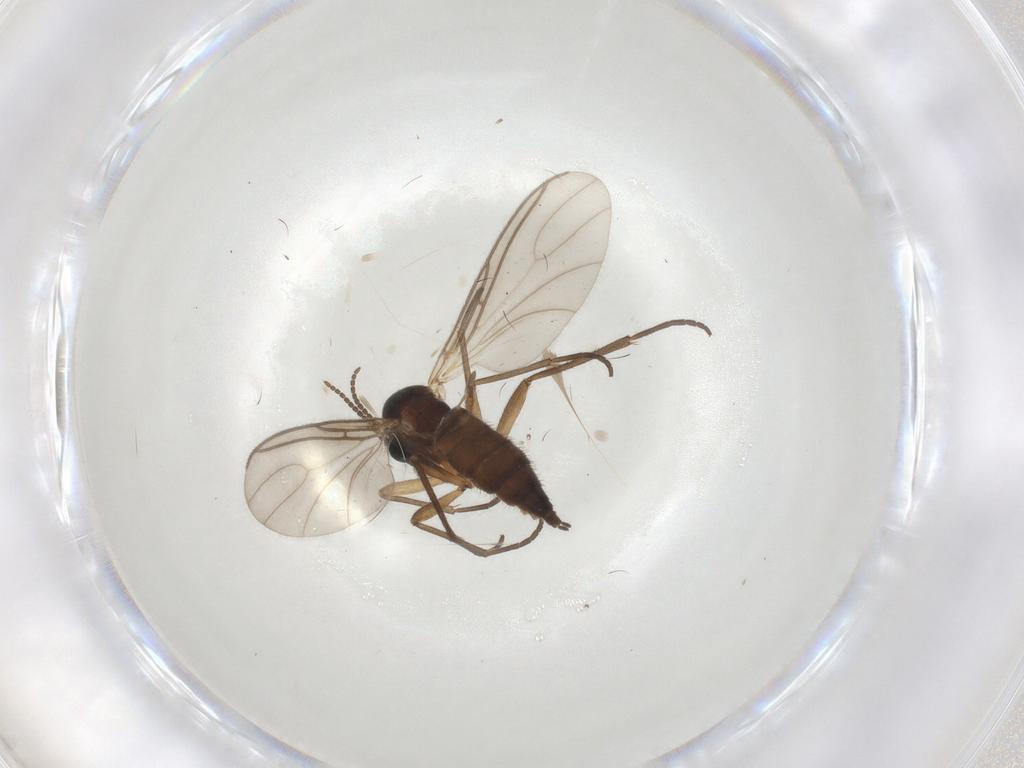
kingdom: Animalia
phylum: Arthropoda
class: Insecta
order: Diptera
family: Sciaridae
